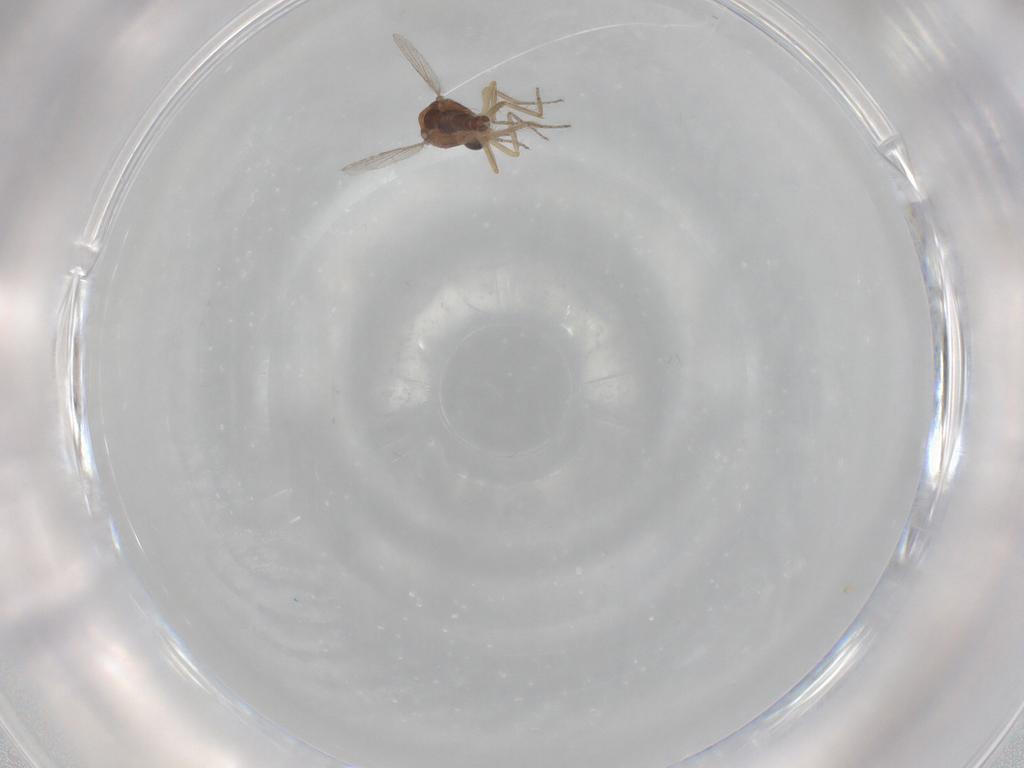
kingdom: Animalia
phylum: Arthropoda
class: Insecta
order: Diptera
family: Ceratopogonidae
